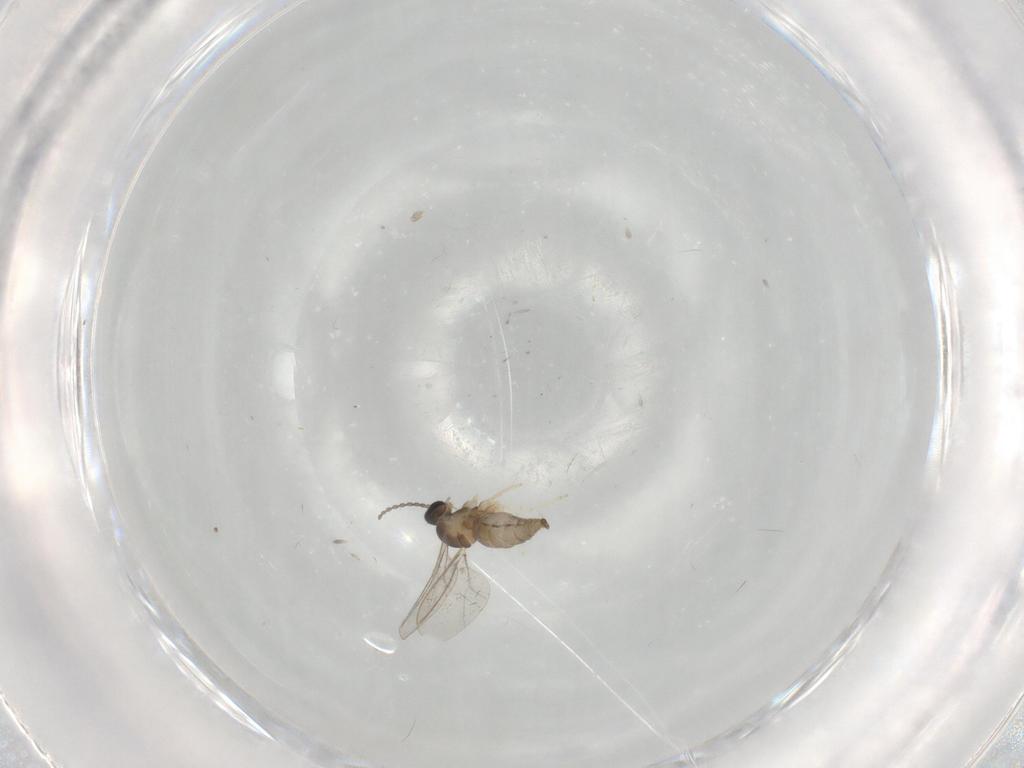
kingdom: Animalia
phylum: Arthropoda
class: Insecta
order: Diptera
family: Cecidomyiidae
